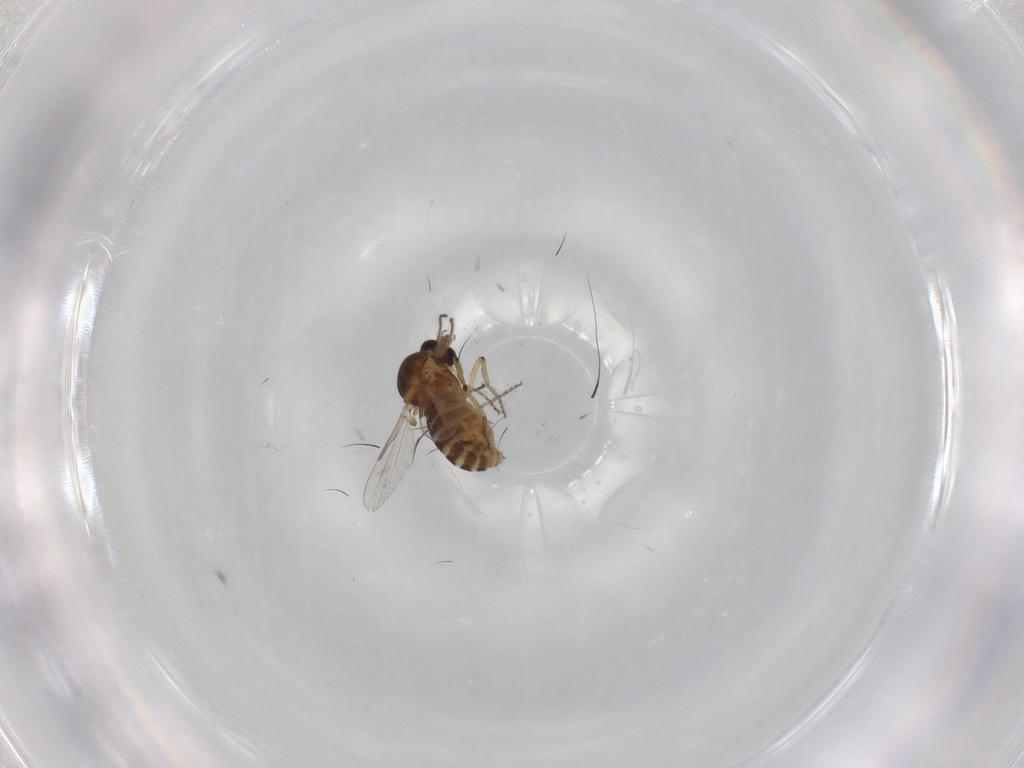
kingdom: Animalia
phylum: Arthropoda
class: Insecta
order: Diptera
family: Ceratopogonidae
